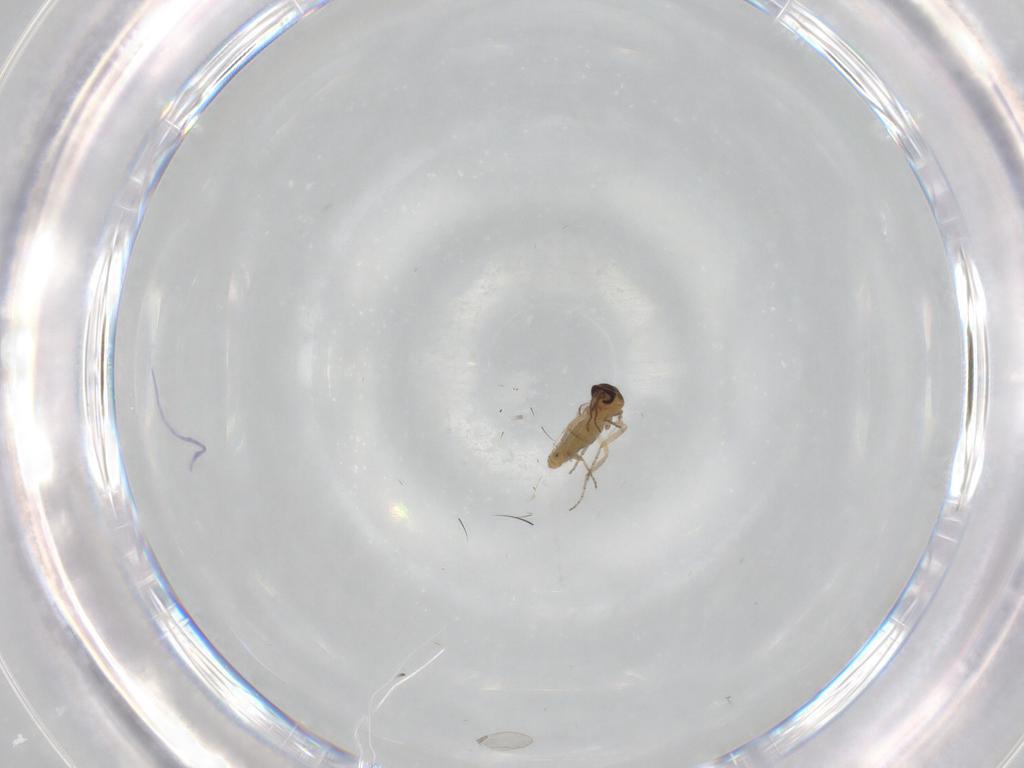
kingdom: Animalia
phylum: Arthropoda
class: Insecta
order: Diptera
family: Ceratopogonidae
